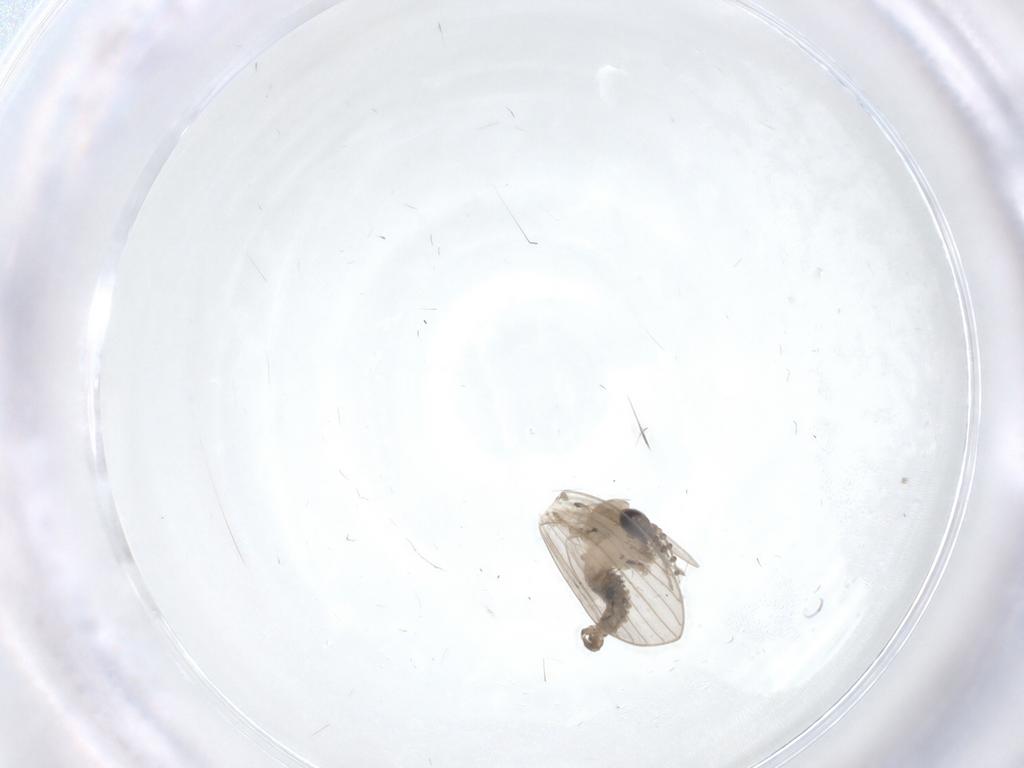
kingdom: Animalia
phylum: Arthropoda
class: Insecta
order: Diptera
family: Psychodidae
